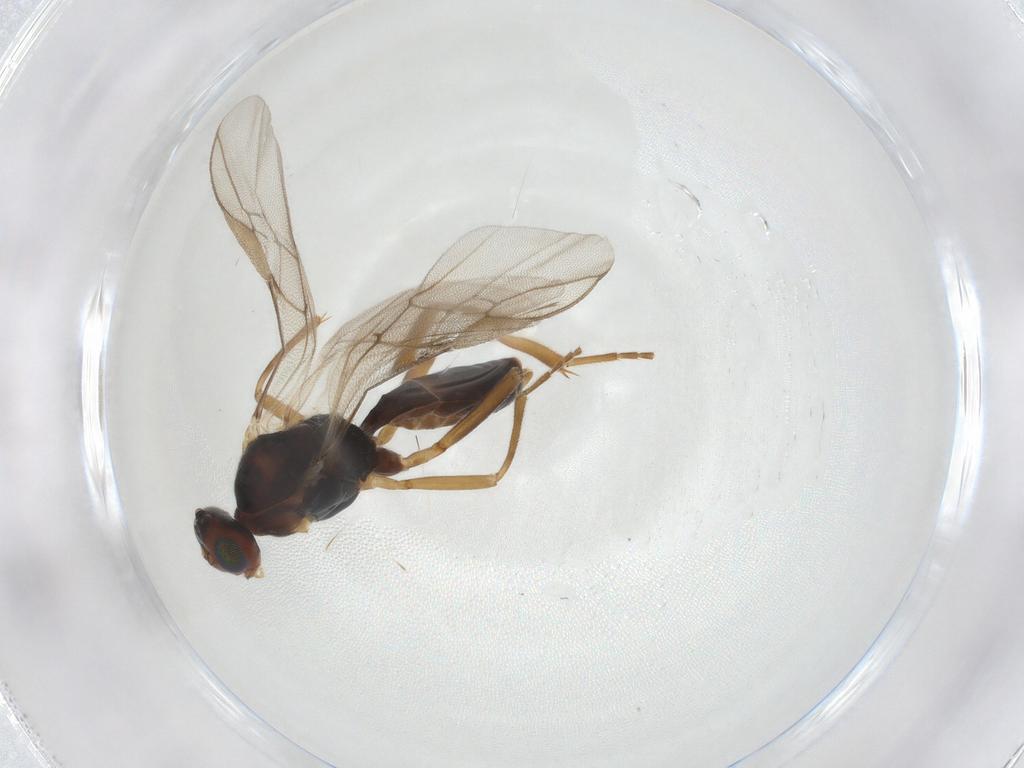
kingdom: Animalia
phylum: Arthropoda
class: Insecta
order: Hymenoptera
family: Braconidae
